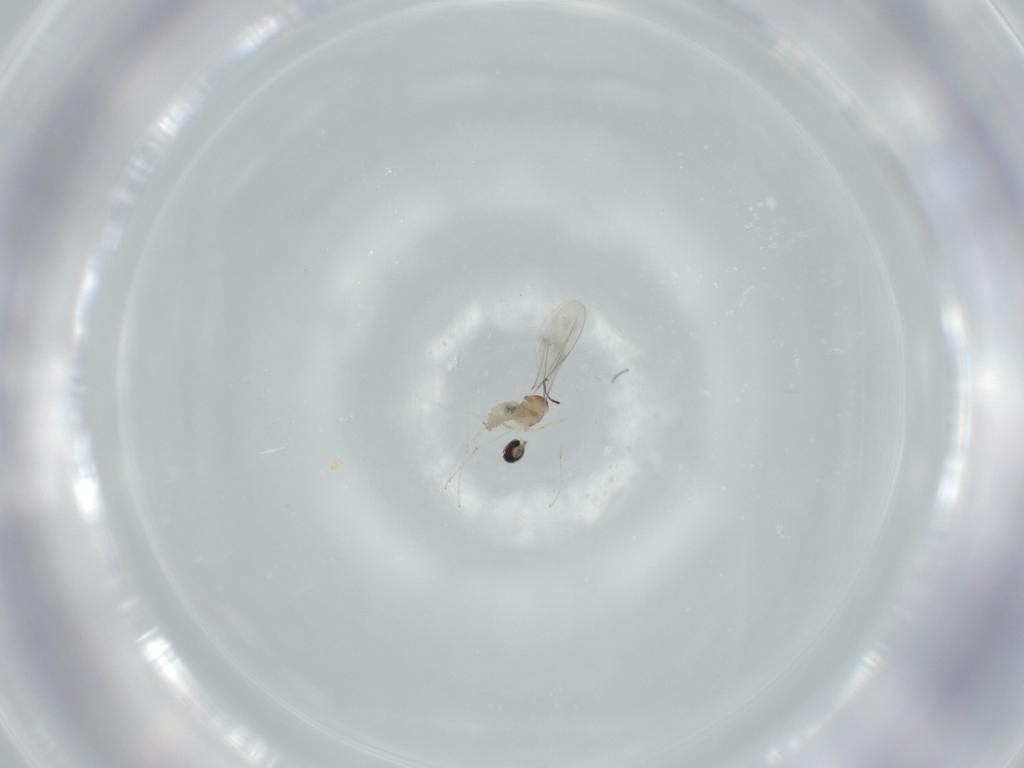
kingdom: Animalia
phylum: Arthropoda
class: Insecta
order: Diptera
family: Cecidomyiidae
